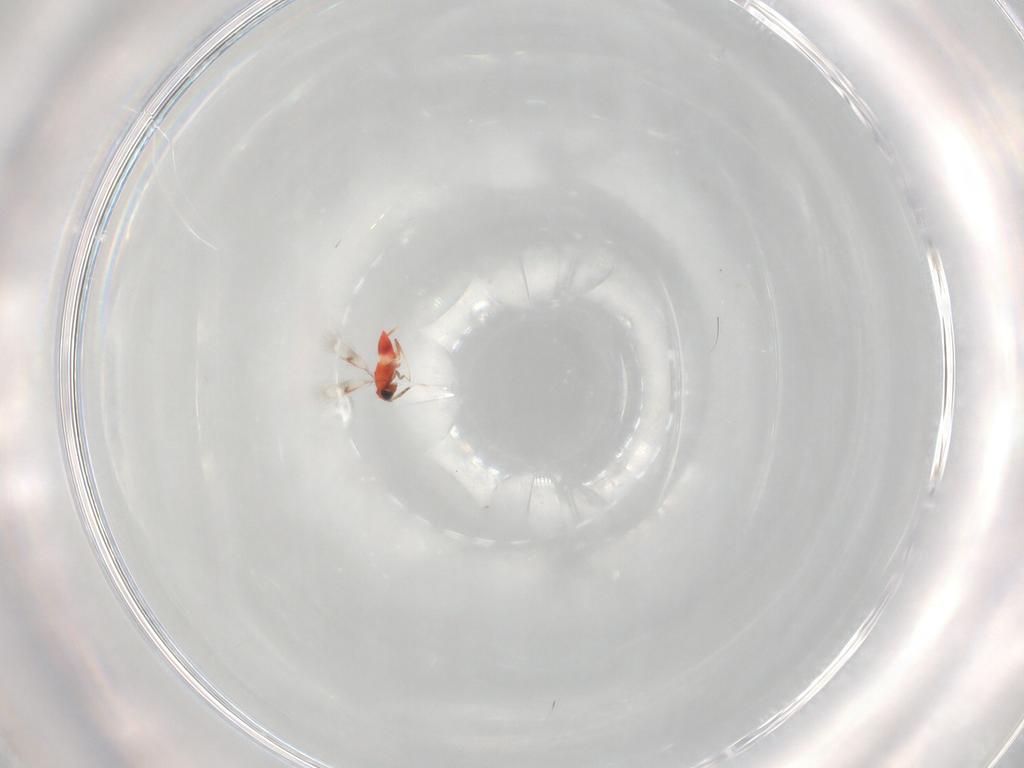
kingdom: Animalia
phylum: Arthropoda
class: Insecta
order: Hymenoptera
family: Trichogrammatidae
